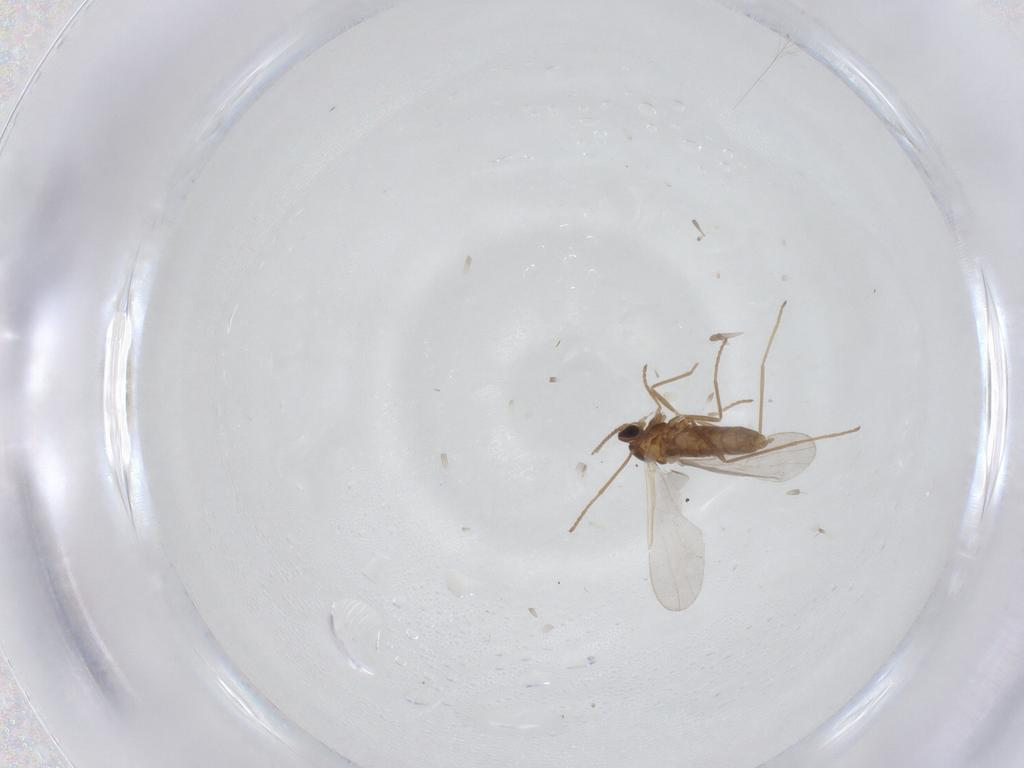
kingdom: Animalia
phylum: Arthropoda
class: Insecta
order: Diptera
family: Cecidomyiidae
